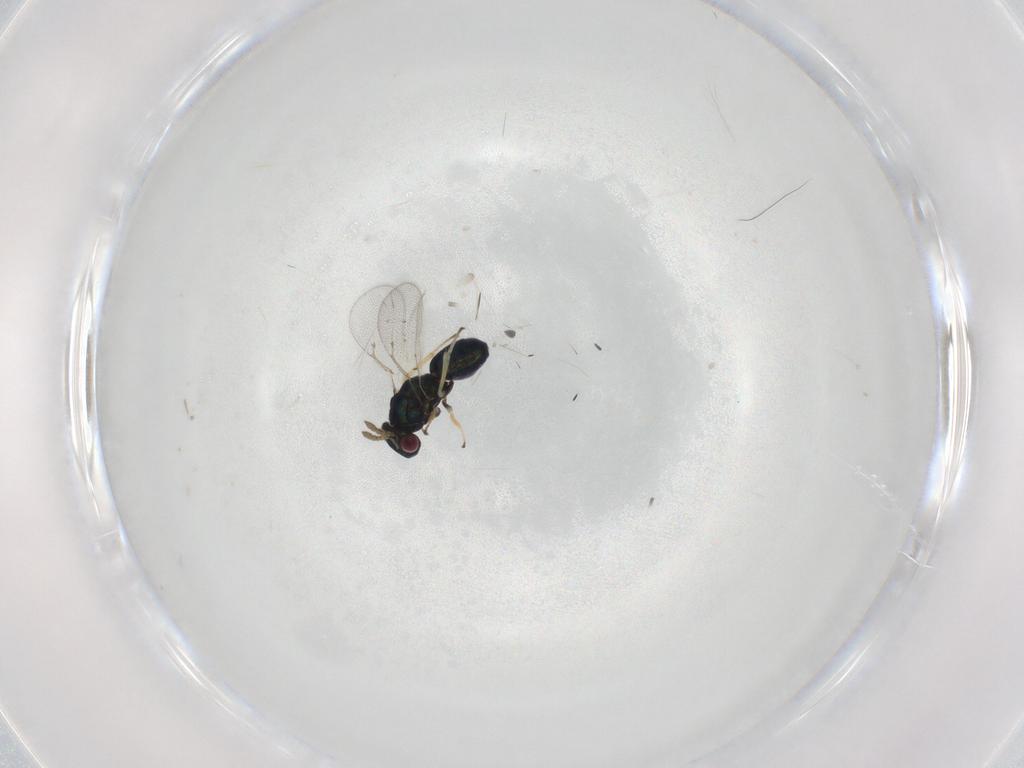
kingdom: Animalia
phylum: Arthropoda
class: Insecta
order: Hymenoptera
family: Eulophidae
